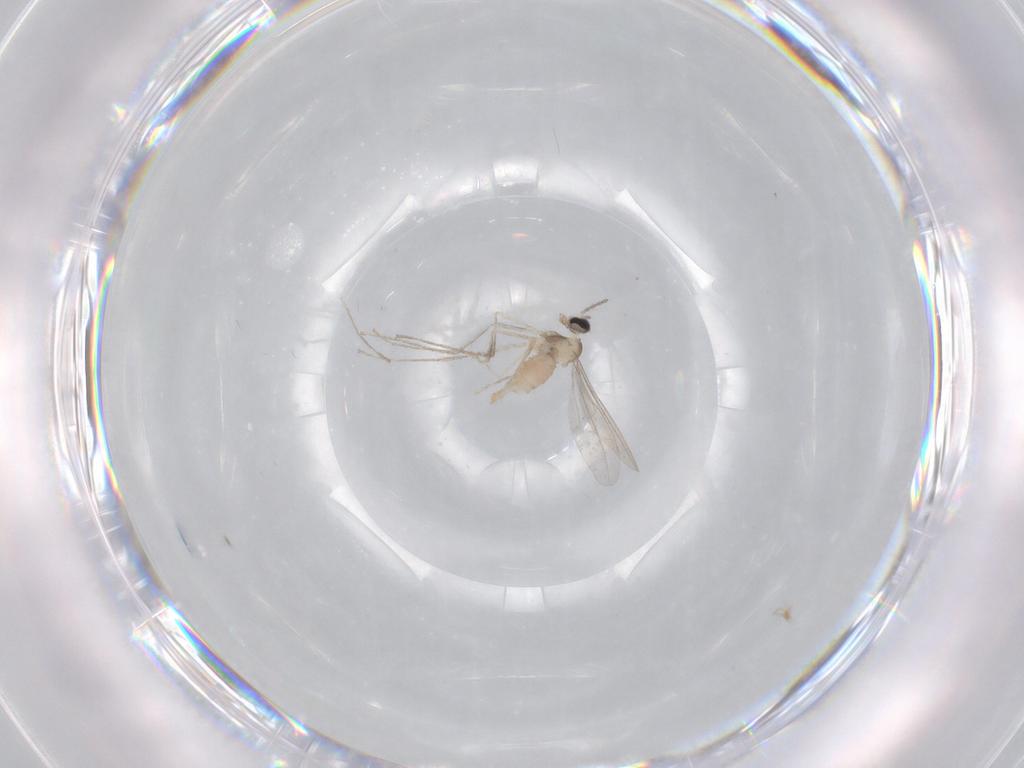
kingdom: Animalia
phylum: Arthropoda
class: Insecta
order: Diptera
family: Cecidomyiidae
